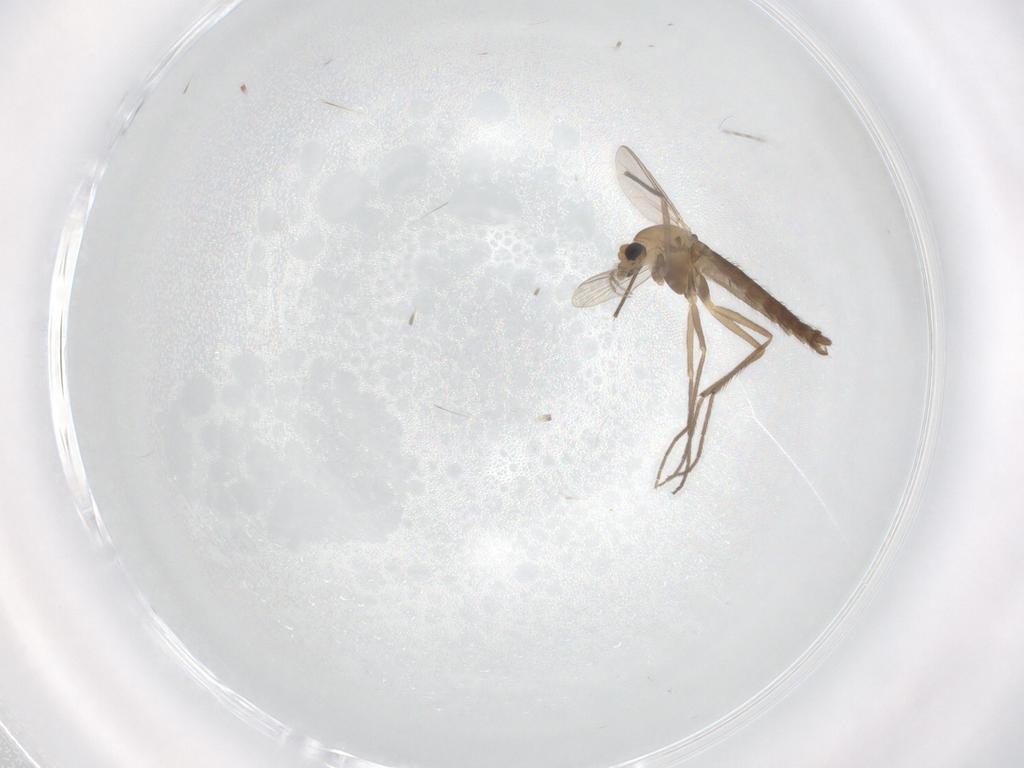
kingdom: Animalia
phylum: Arthropoda
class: Insecta
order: Diptera
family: Chironomidae
